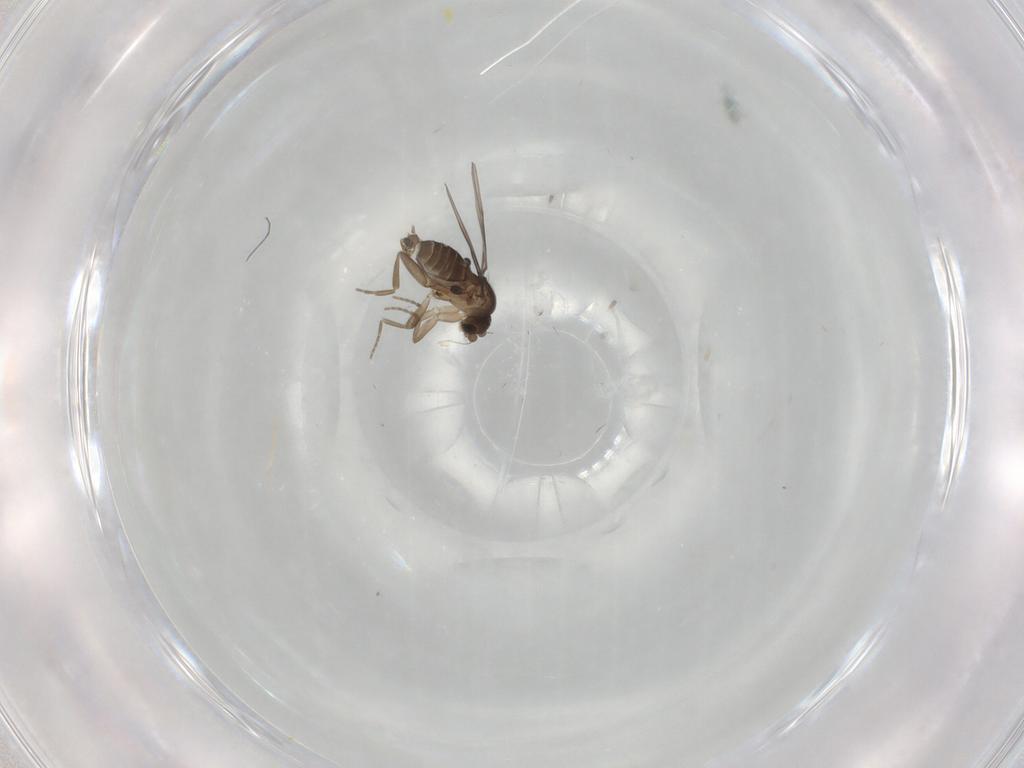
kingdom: Animalia
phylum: Arthropoda
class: Insecta
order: Diptera
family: Phoridae
